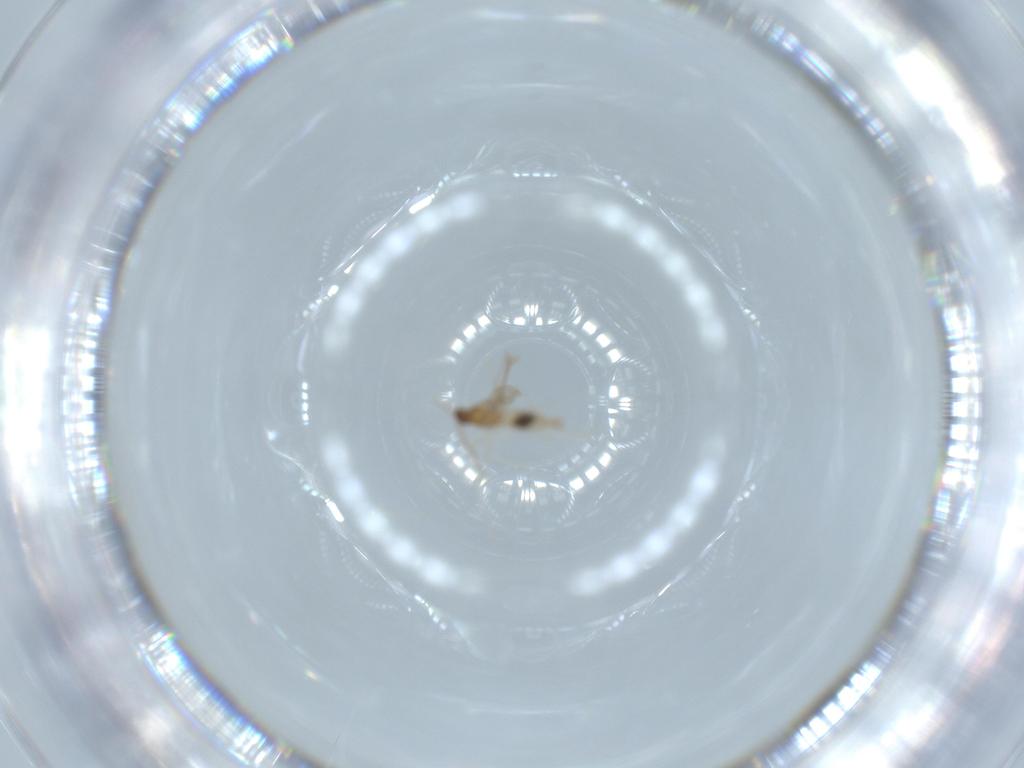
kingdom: Animalia
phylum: Arthropoda
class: Insecta
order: Diptera
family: Cecidomyiidae
